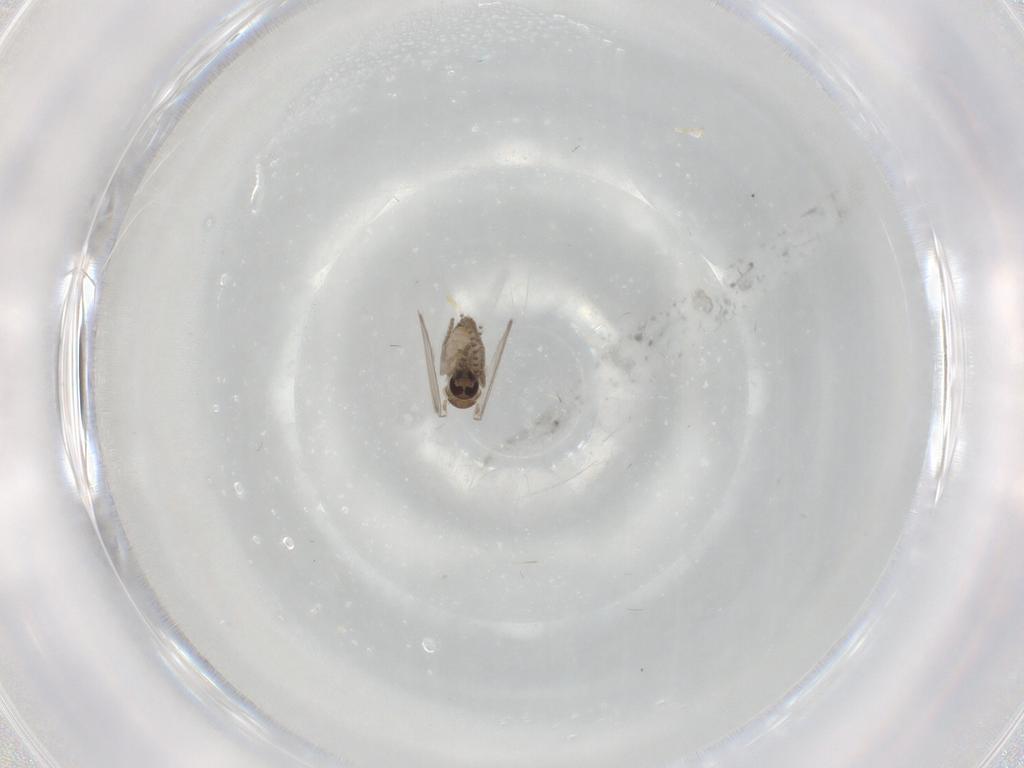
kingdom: Animalia
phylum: Arthropoda
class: Insecta
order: Diptera
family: Psychodidae
